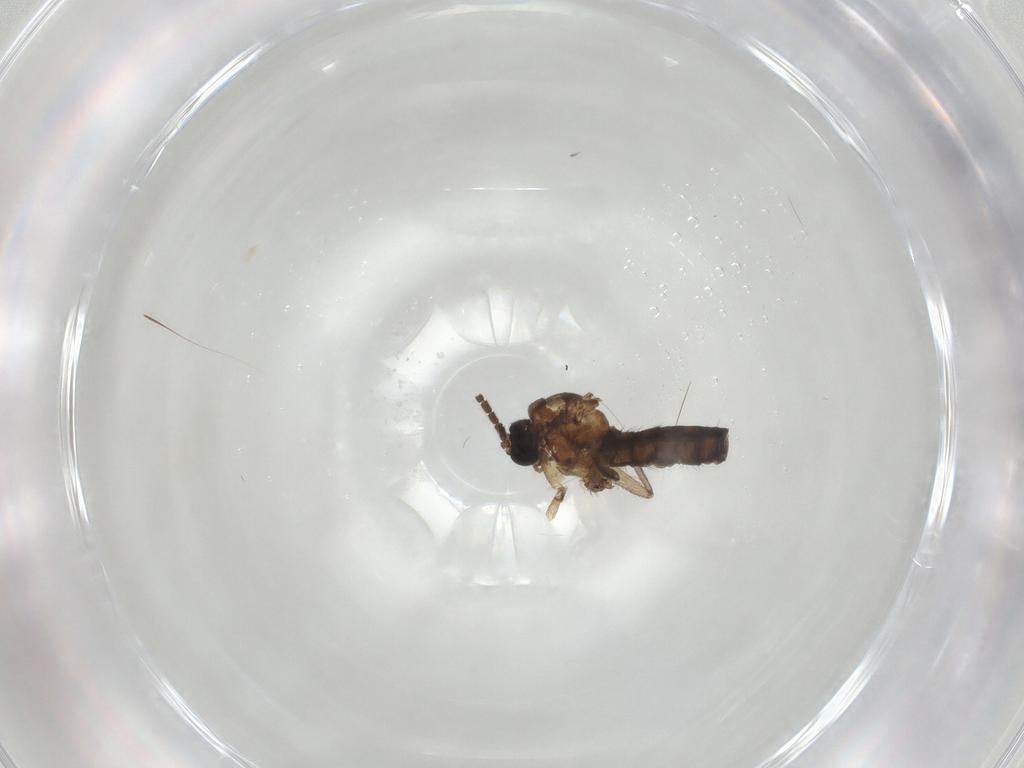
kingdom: Animalia
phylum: Arthropoda
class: Insecta
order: Diptera
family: Sciaridae
